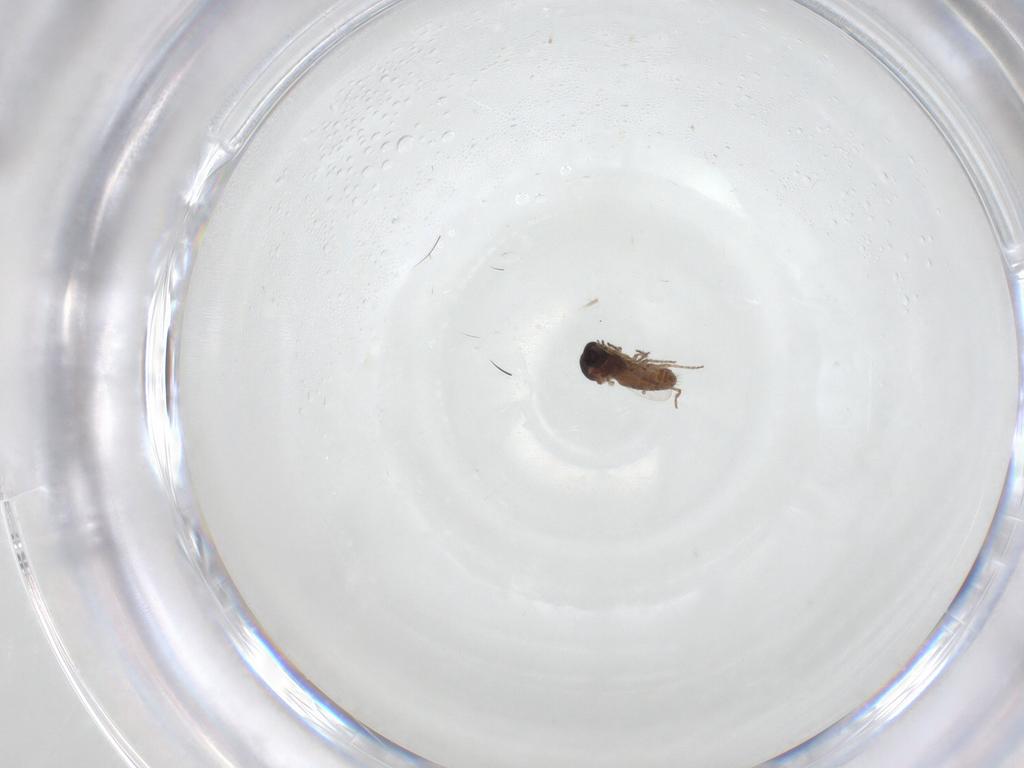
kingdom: Animalia
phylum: Arthropoda
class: Insecta
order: Diptera
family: Ceratopogonidae
